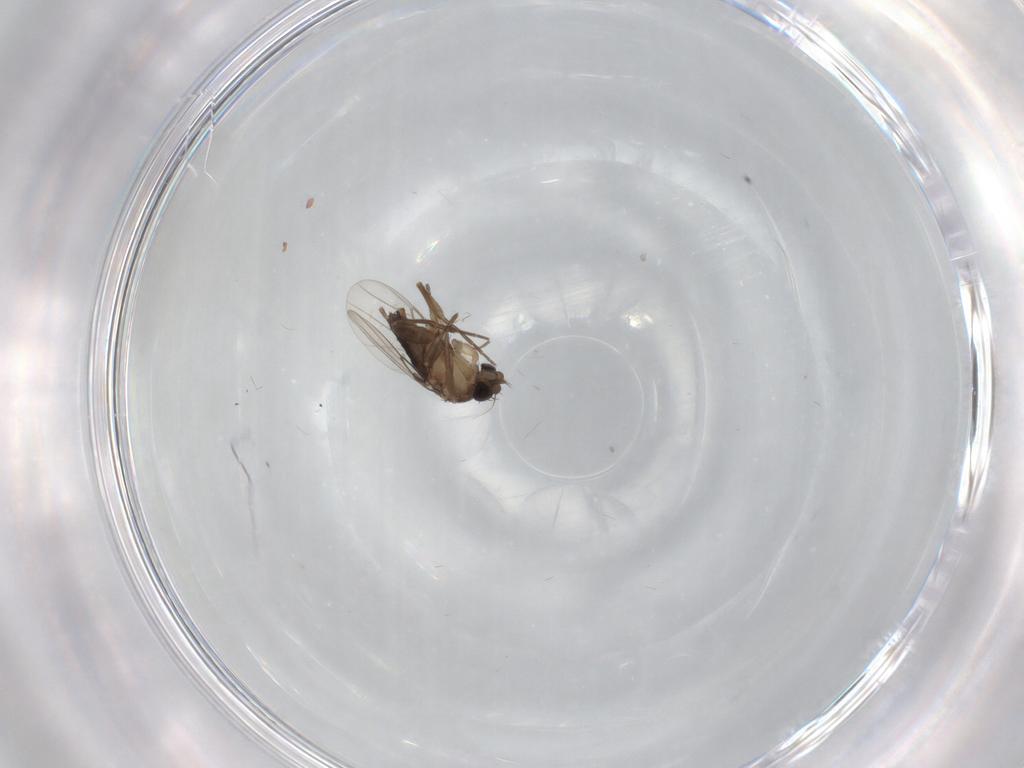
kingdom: Animalia
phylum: Arthropoda
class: Insecta
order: Diptera
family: Phoridae
